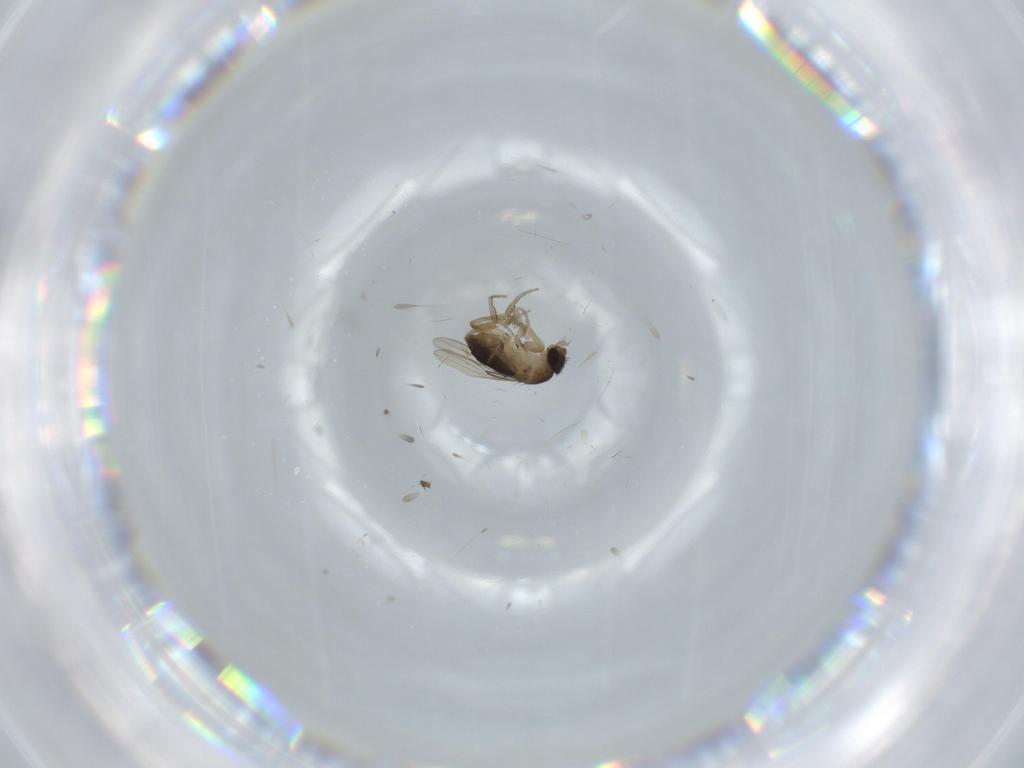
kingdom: Animalia
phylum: Arthropoda
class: Insecta
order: Diptera
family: Phoridae
